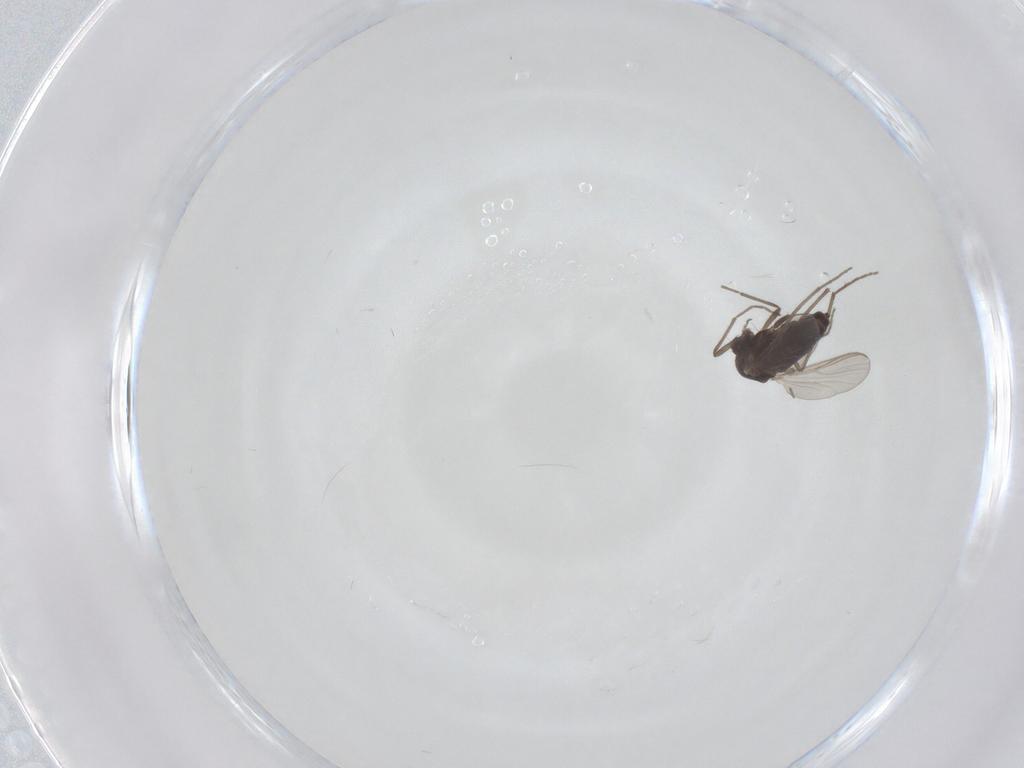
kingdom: Animalia
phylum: Arthropoda
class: Insecta
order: Diptera
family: Chironomidae
